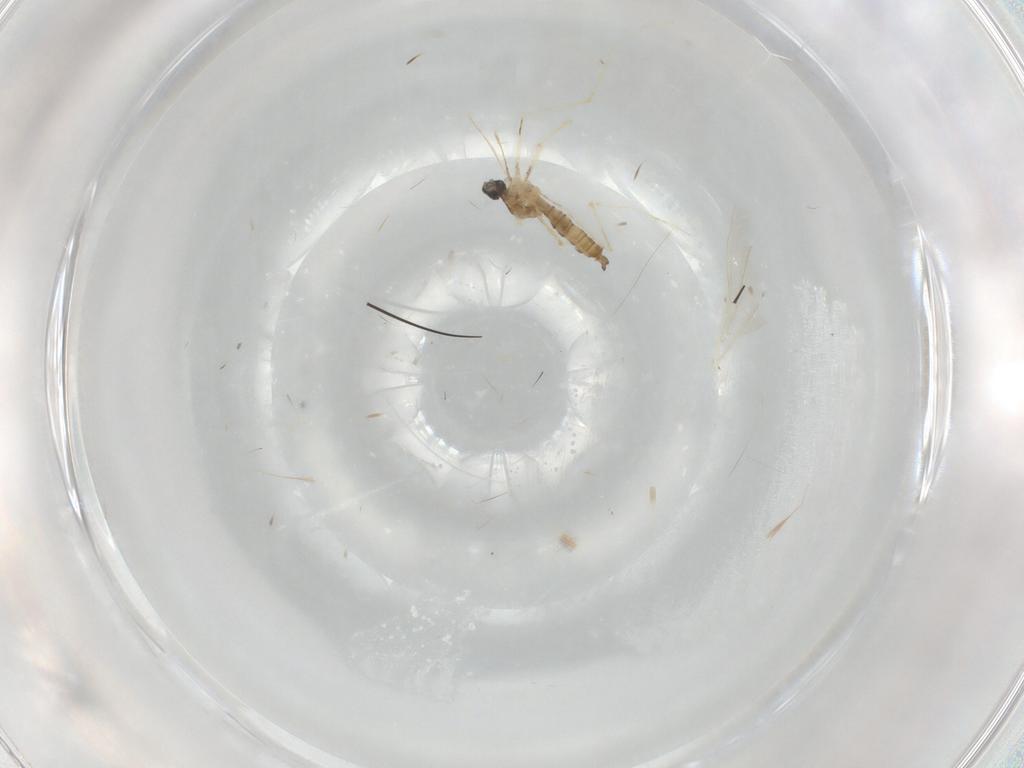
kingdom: Animalia
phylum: Arthropoda
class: Insecta
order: Diptera
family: Cecidomyiidae
